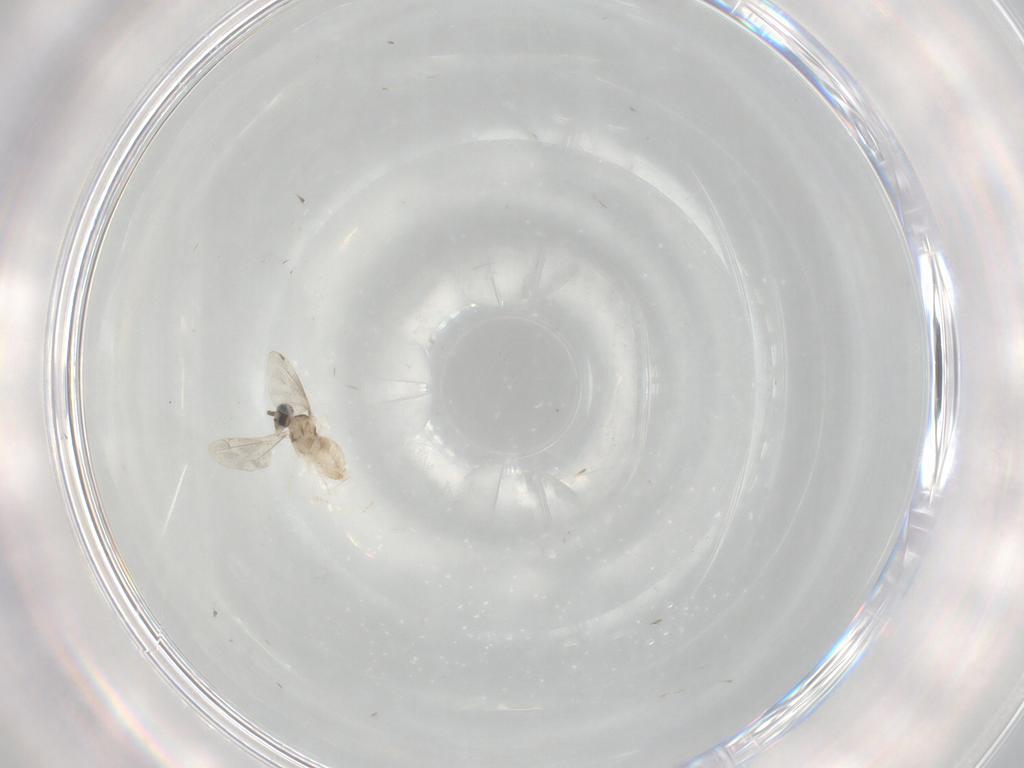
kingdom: Animalia
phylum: Arthropoda
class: Insecta
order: Diptera
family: Cecidomyiidae
